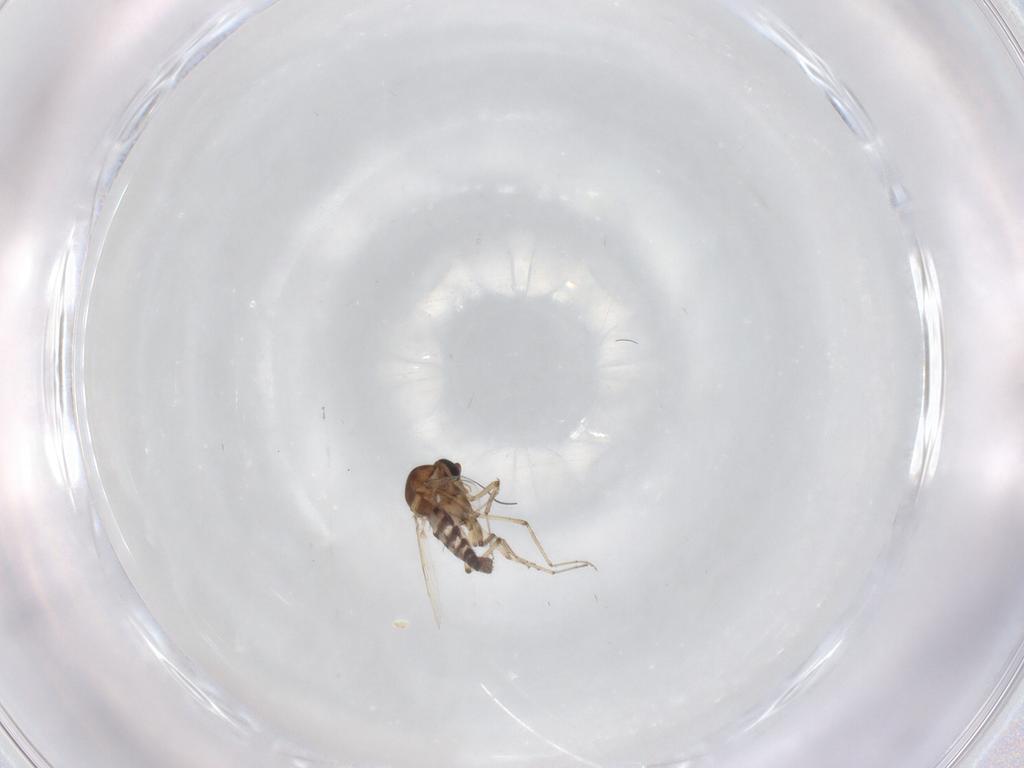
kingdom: Animalia
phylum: Arthropoda
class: Insecta
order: Diptera
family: Ceratopogonidae
